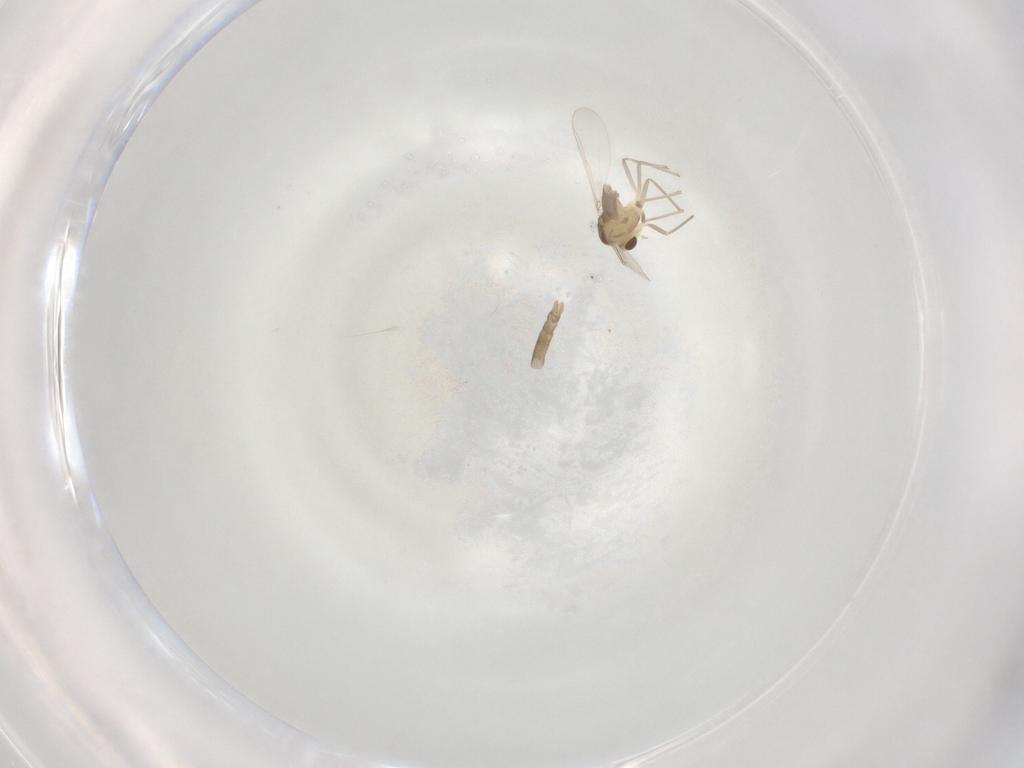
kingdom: Animalia
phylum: Arthropoda
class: Insecta
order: Diptera
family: Chironomidae
